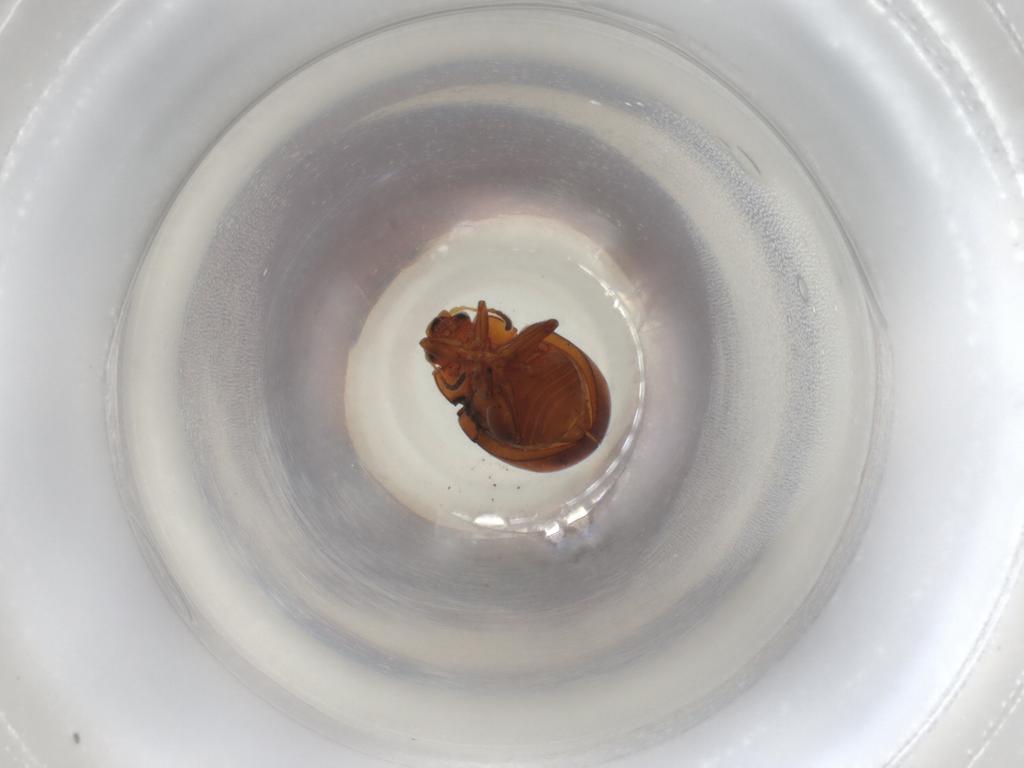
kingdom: Animalia
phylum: Arthropoda
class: Insecta
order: Coleoptera
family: Chrysomelidae
